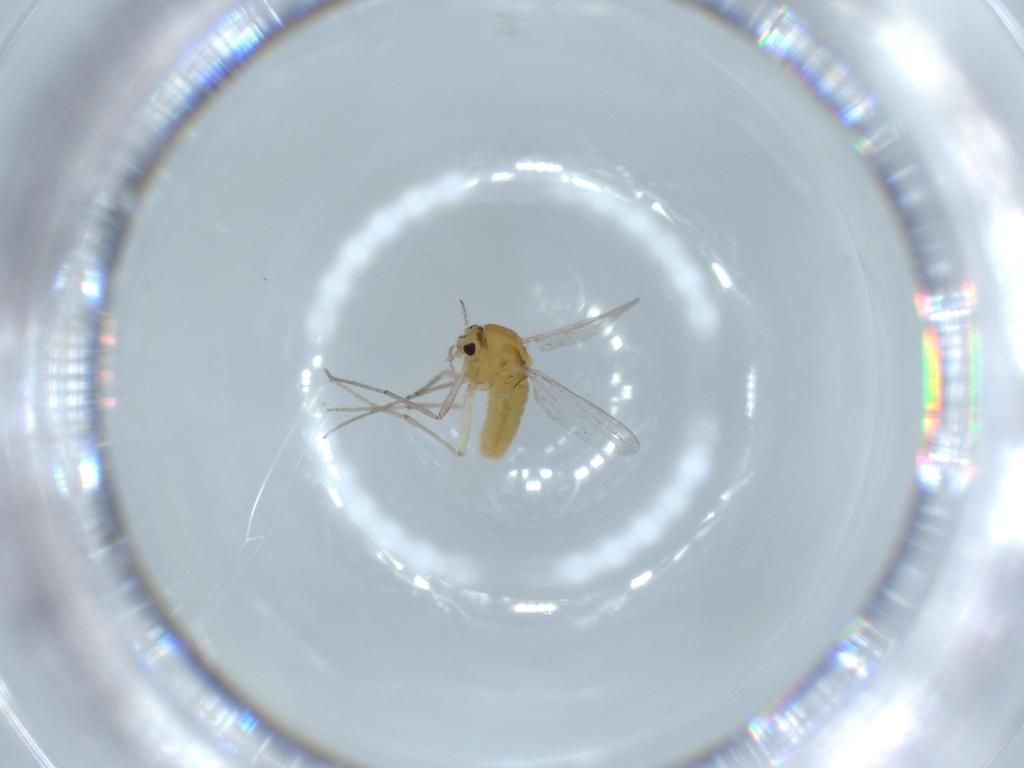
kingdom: Animalia
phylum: Arthropoda
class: Insecta
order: Diptera
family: Chironomidae
